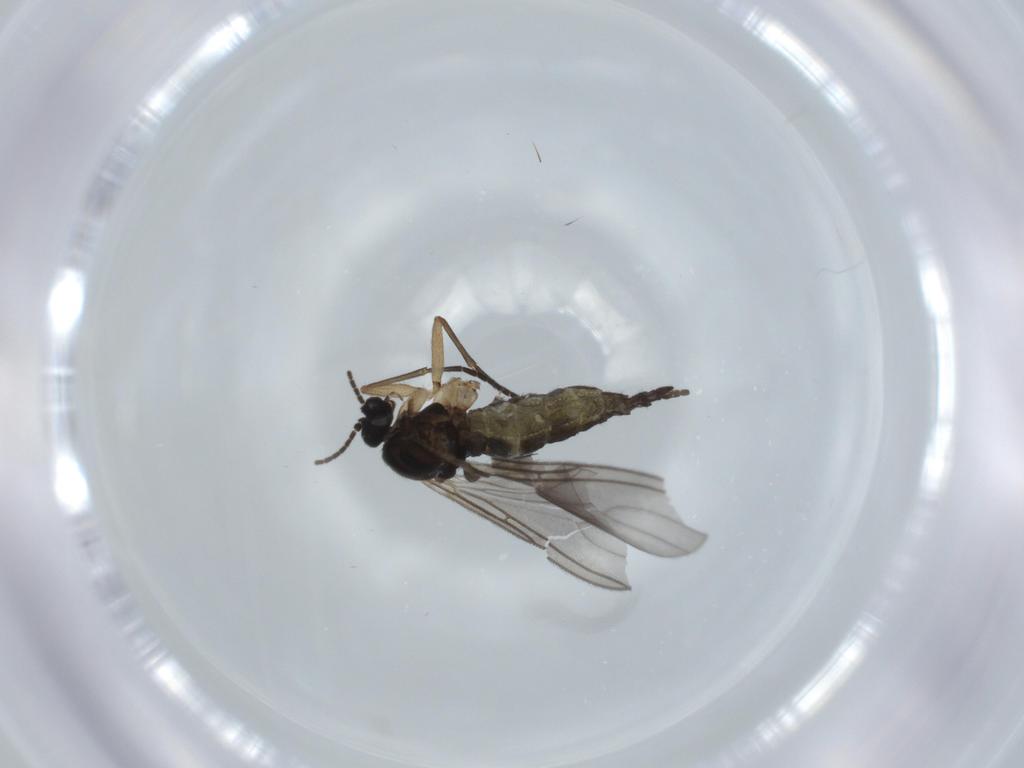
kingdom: Animalia
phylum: Arthropoda
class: Insecta
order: Diptera
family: Sciaridae
